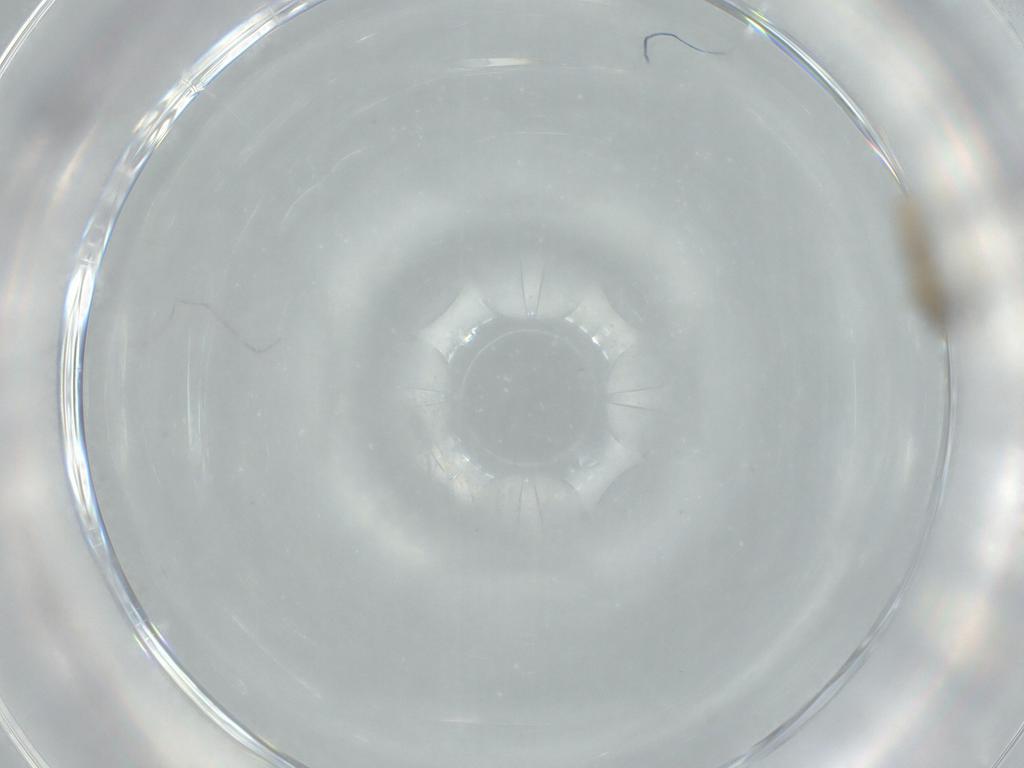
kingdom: Animalia
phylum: Arthropoda
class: Insecta
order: Diptera
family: Cecidomyiidae
